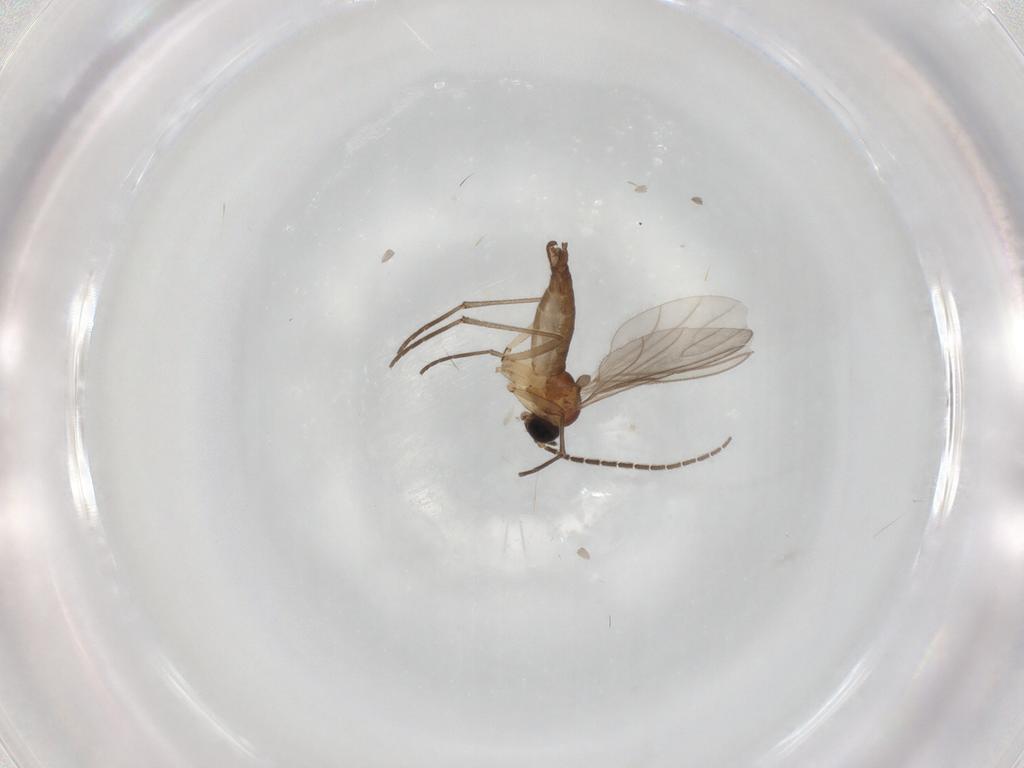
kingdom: Animalia
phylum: Arthropoda
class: Insecta
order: Diptera
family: Sciaridae
